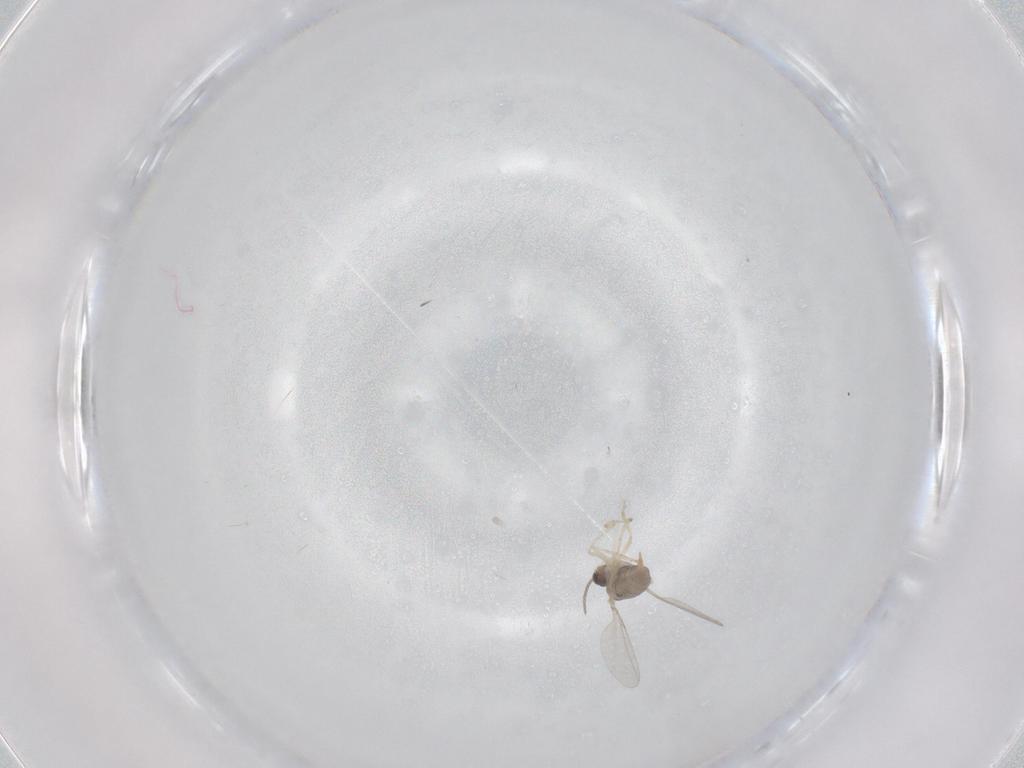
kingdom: Animalia
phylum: Arthropoda
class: Insecta
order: Diptera
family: Cecidomyiidae
